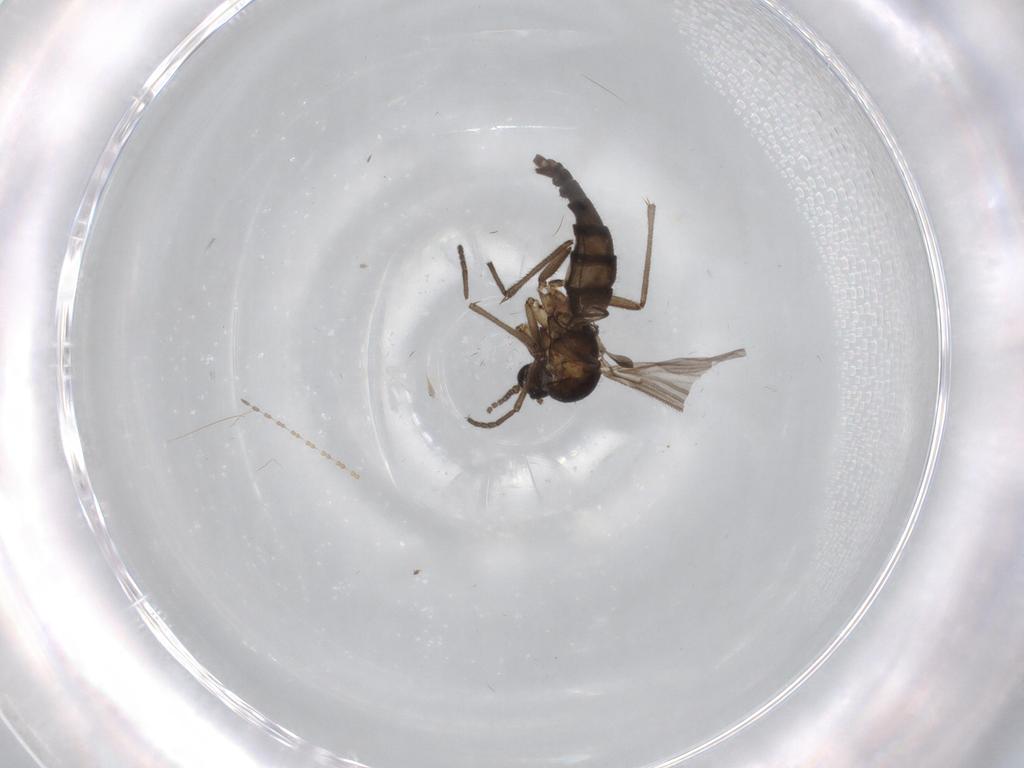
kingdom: Animalia
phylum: Arthropoda
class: Insecta
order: Diptera
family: Sciaridae
